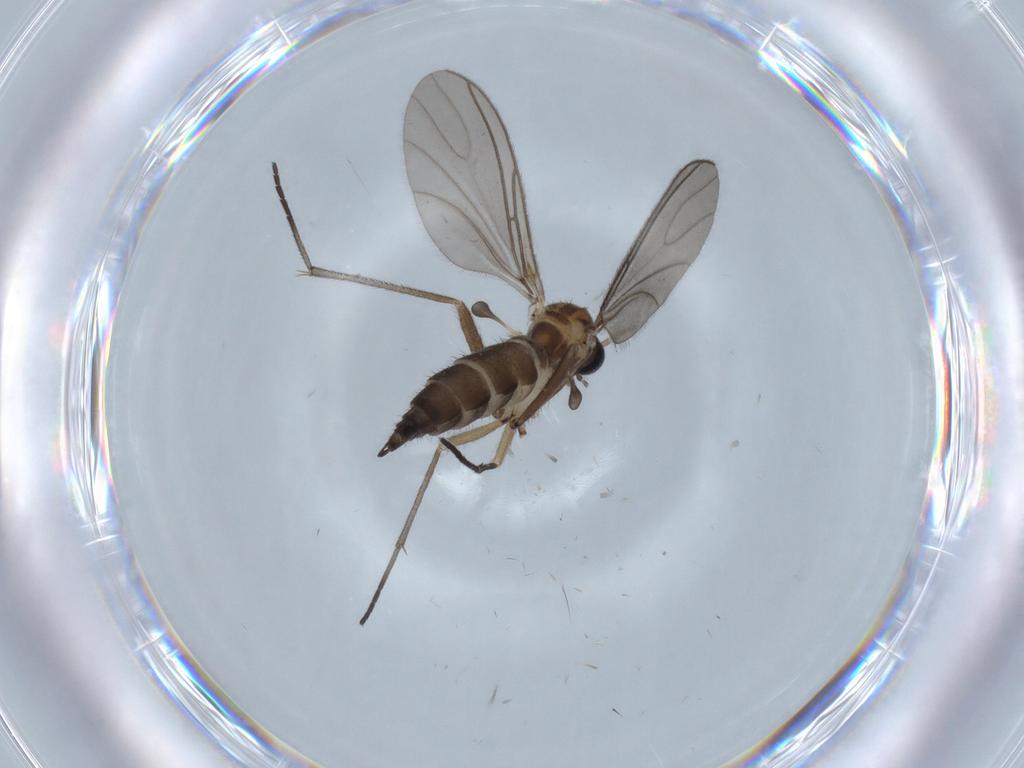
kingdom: Animalia
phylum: Arthropoda
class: Insecta
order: Diptera
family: Sciaridae
